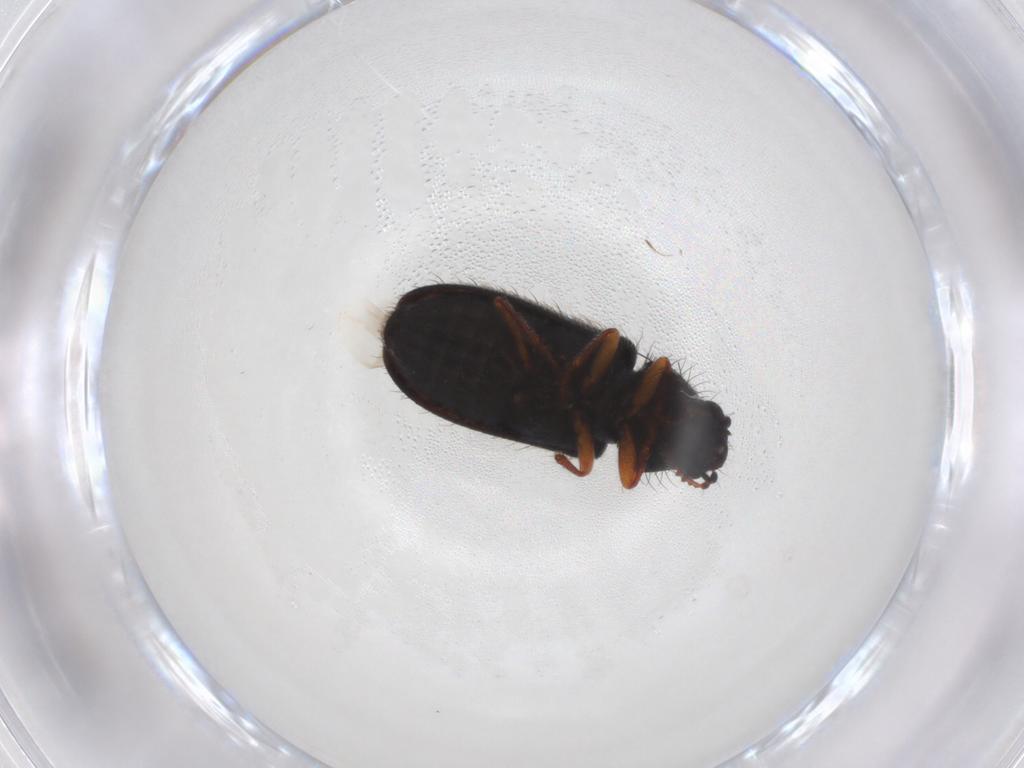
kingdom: Animalia
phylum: Arthropoda
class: Insecta
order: Coleoptera
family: Melyridae
